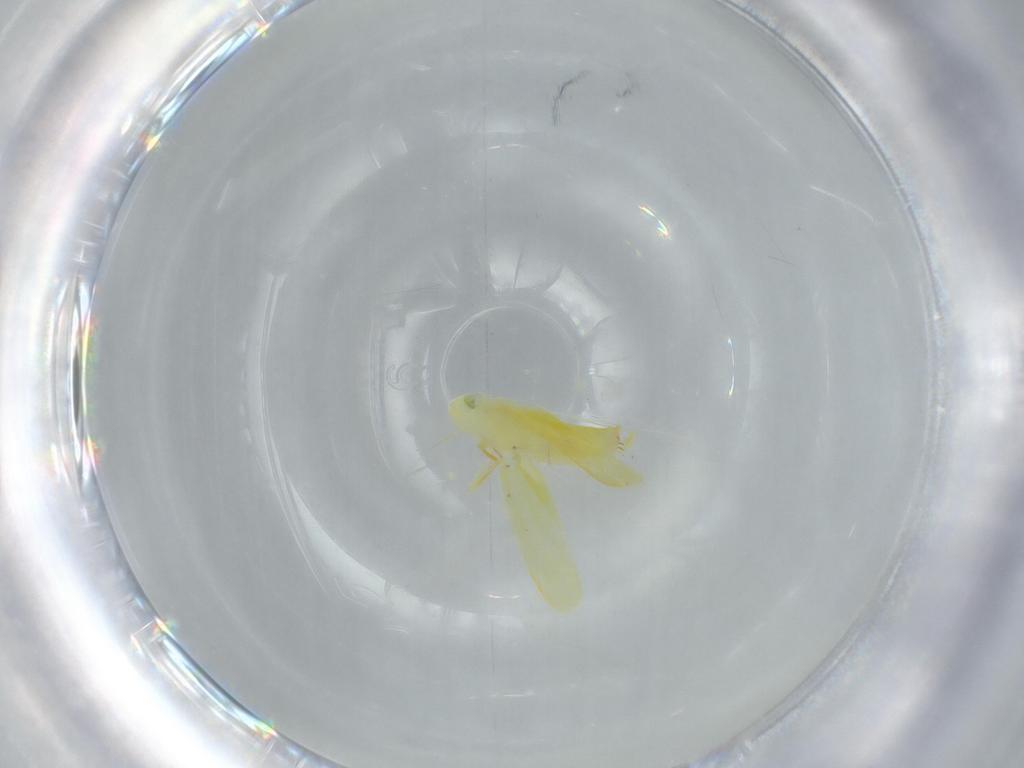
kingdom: Animalia
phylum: Arthropoda
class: Insecta
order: Hemiptera
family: Cicadellidae
